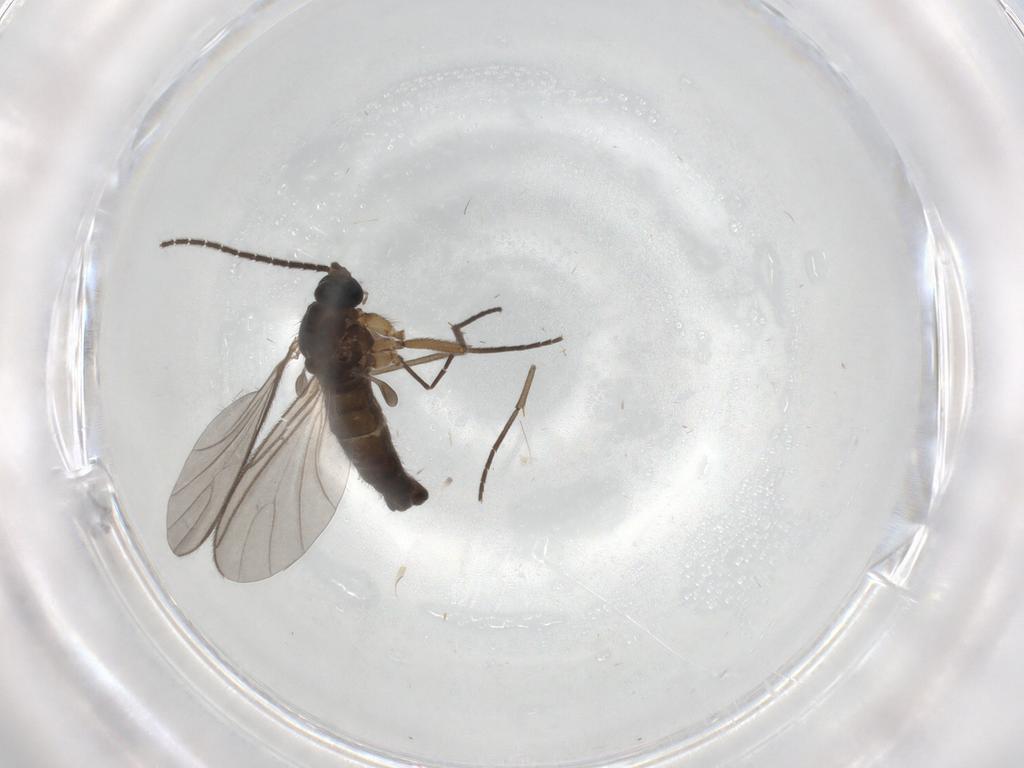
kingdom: Animalia
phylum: Arthropoda
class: Insecta
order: Diptera
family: Sciaridae
